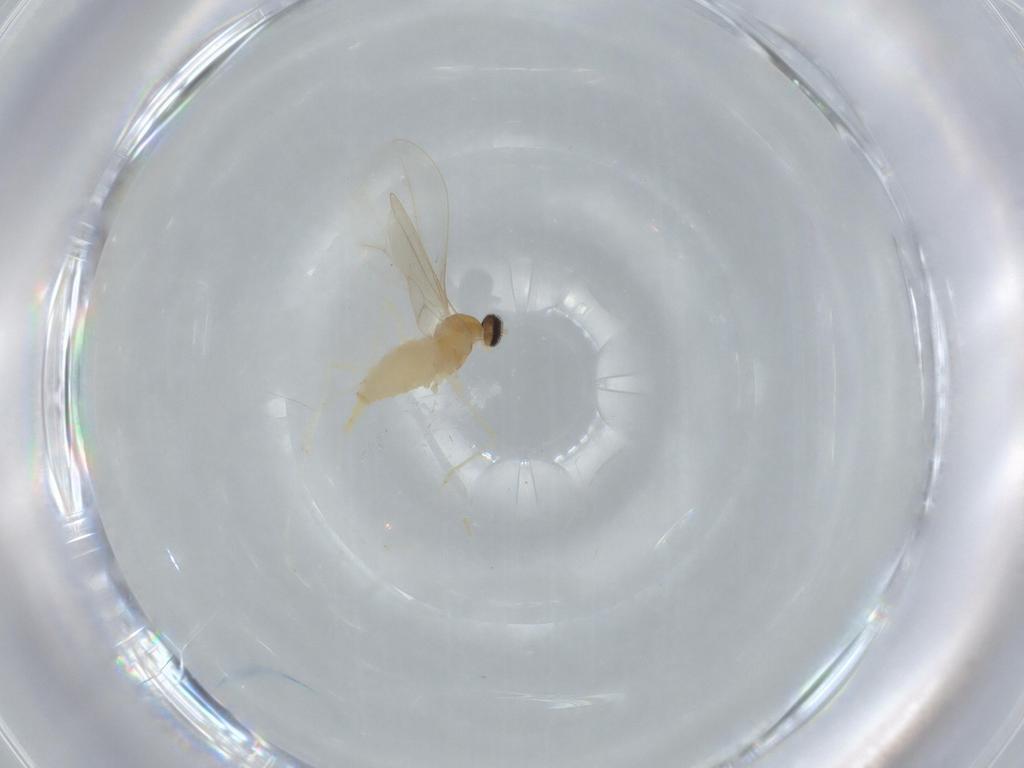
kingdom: Animalia
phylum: Arthropoda
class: Insecta
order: Diptera
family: Cecidomyiidae
